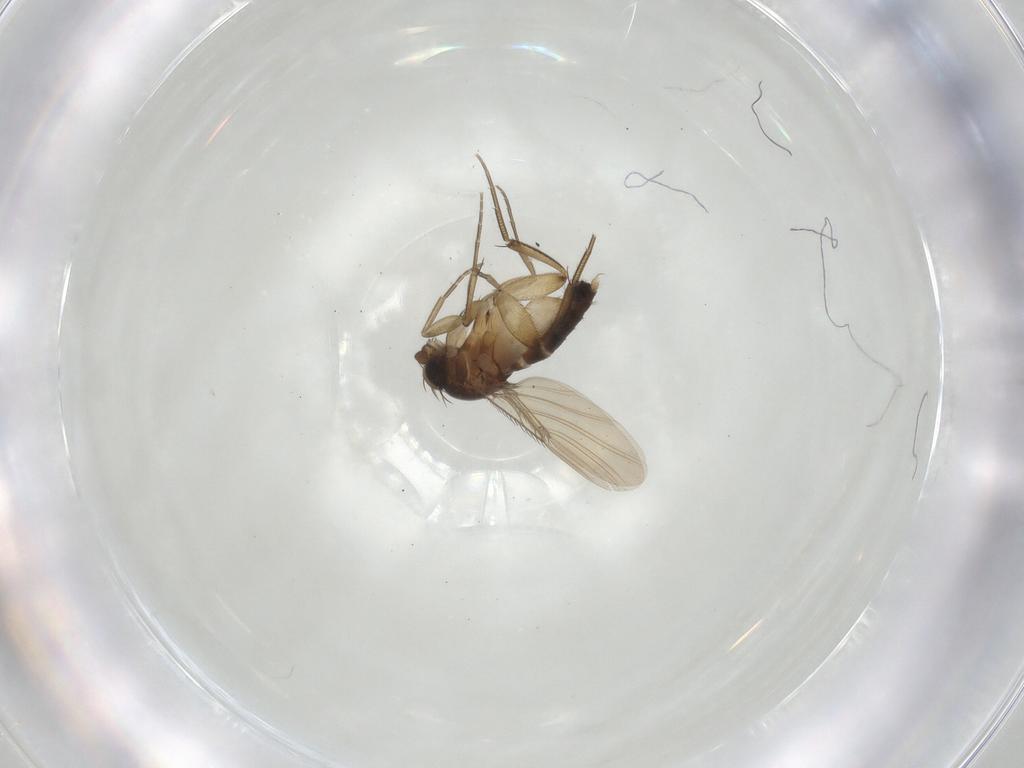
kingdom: Animalia
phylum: Arthropoda
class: Insecta
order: Diptera
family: Phoridae
